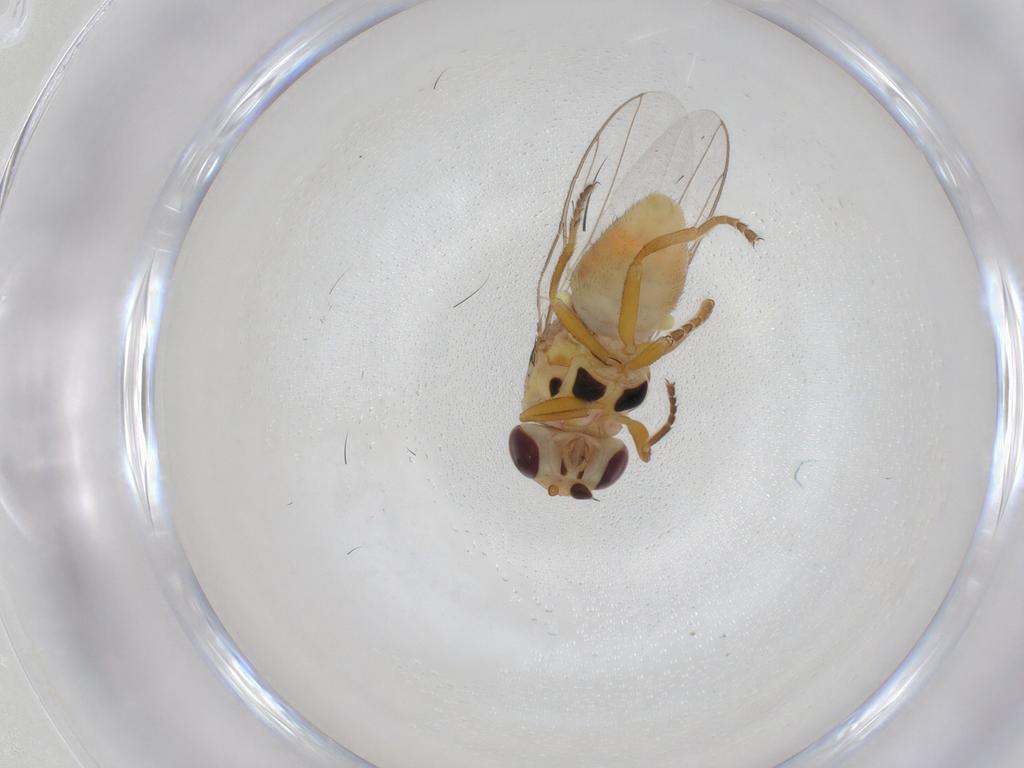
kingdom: Animalia
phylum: Arthropoda
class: Insecta
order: Diptera
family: Chloropidae
